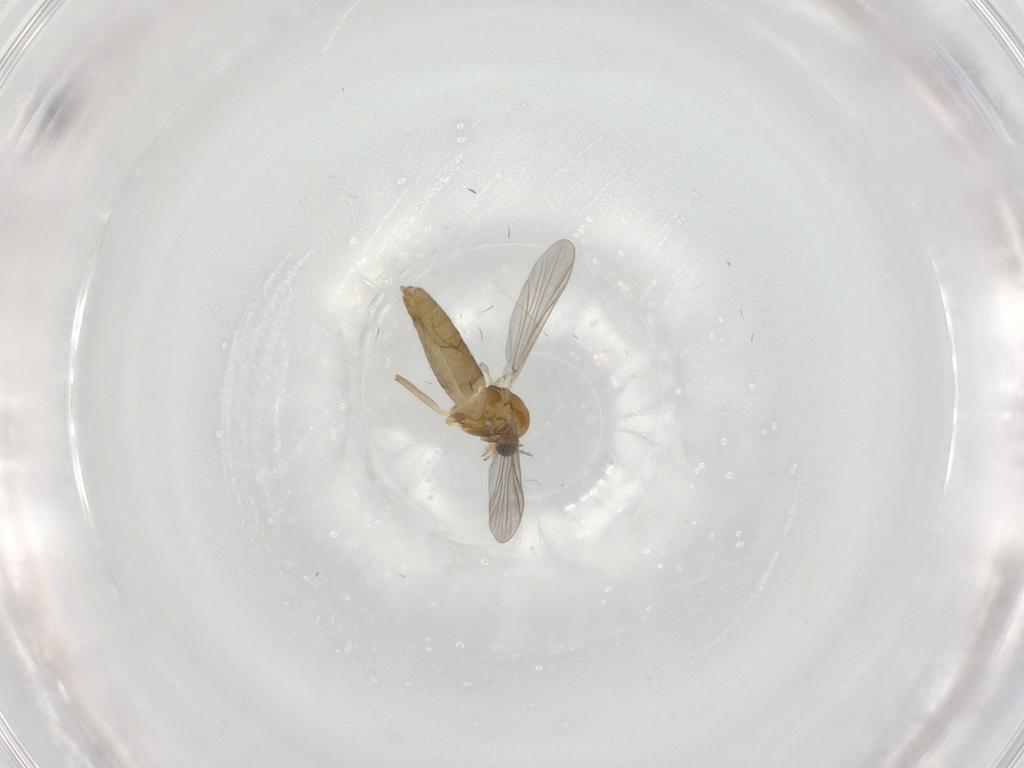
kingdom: Animalia
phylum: Arthropoda
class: Insecta
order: Diptera
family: Chironomidae
